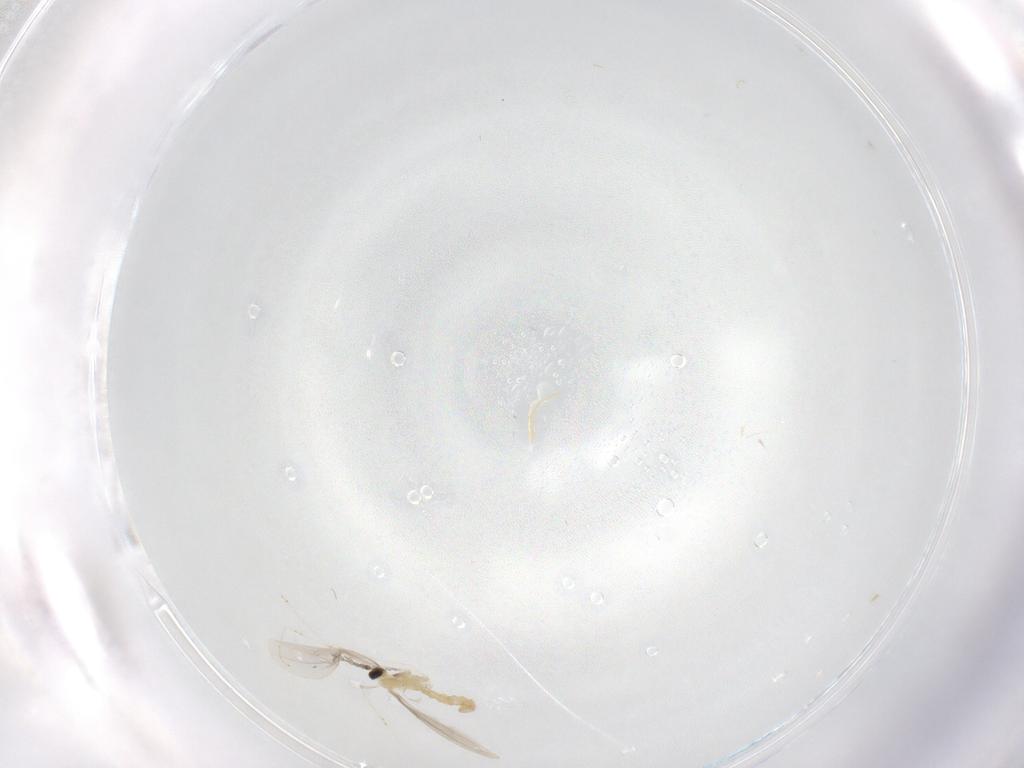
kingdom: Animalia
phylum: Arthropoda
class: Insecta
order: Diptera
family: Cecidomyiidae
